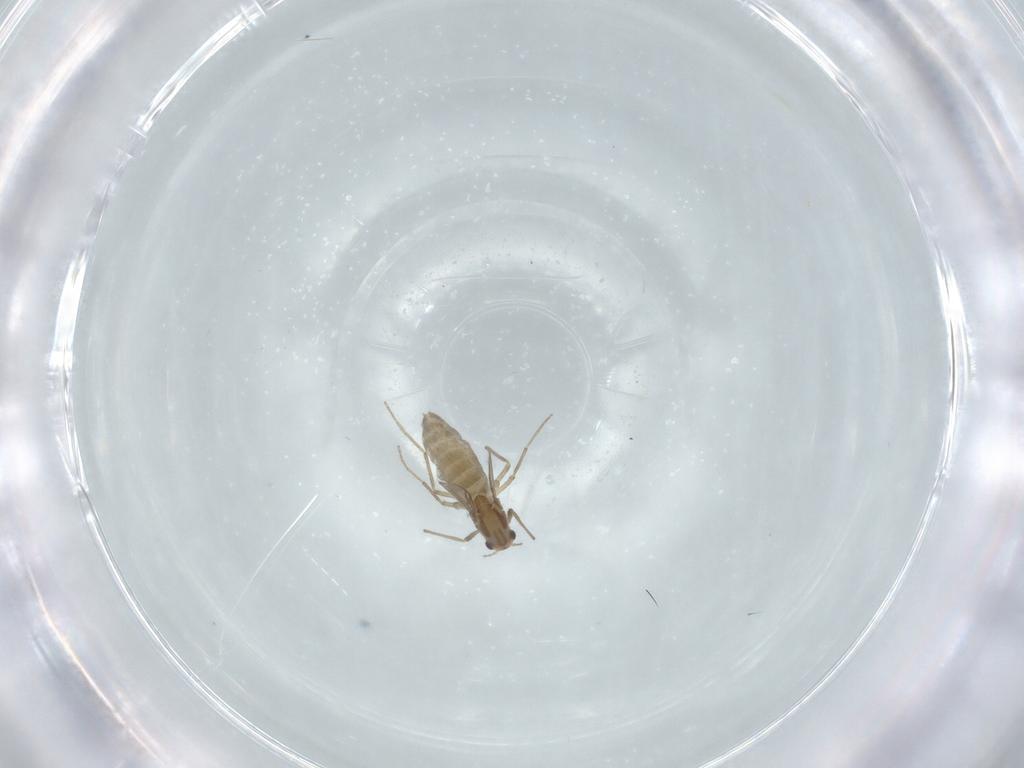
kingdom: Animalia
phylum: Arthropoda
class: Insecta
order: Diptera
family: Chironomidae
